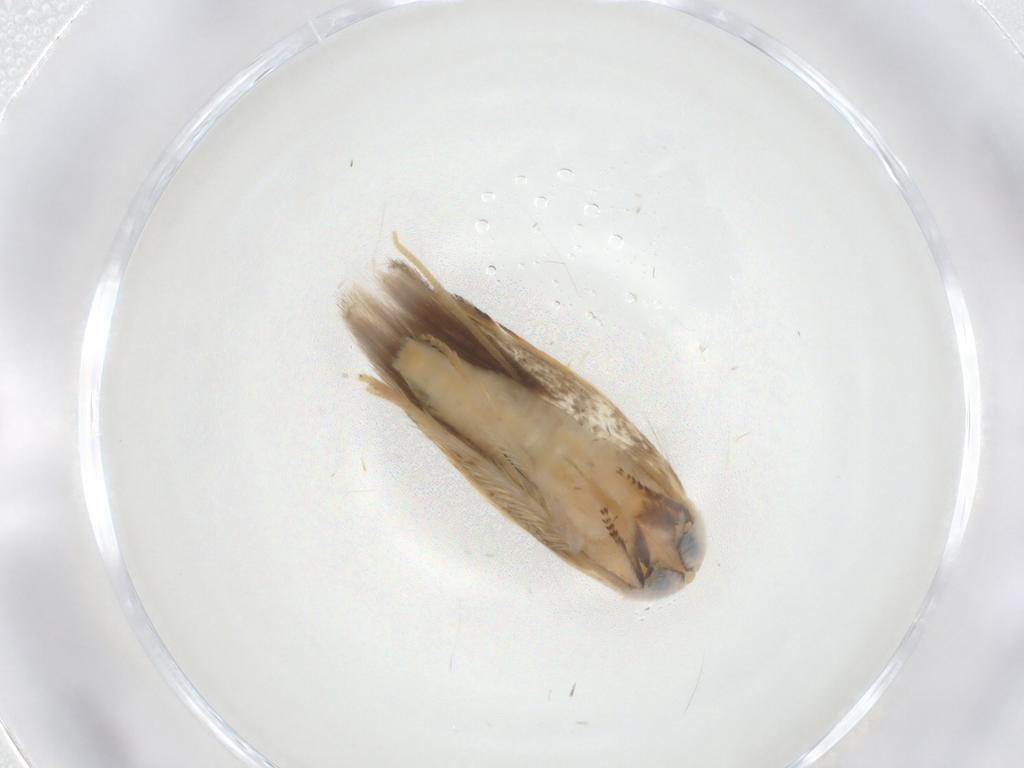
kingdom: Animalia
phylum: Arthropoda
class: Insecta
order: Lepidoptera
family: Opostegidae
